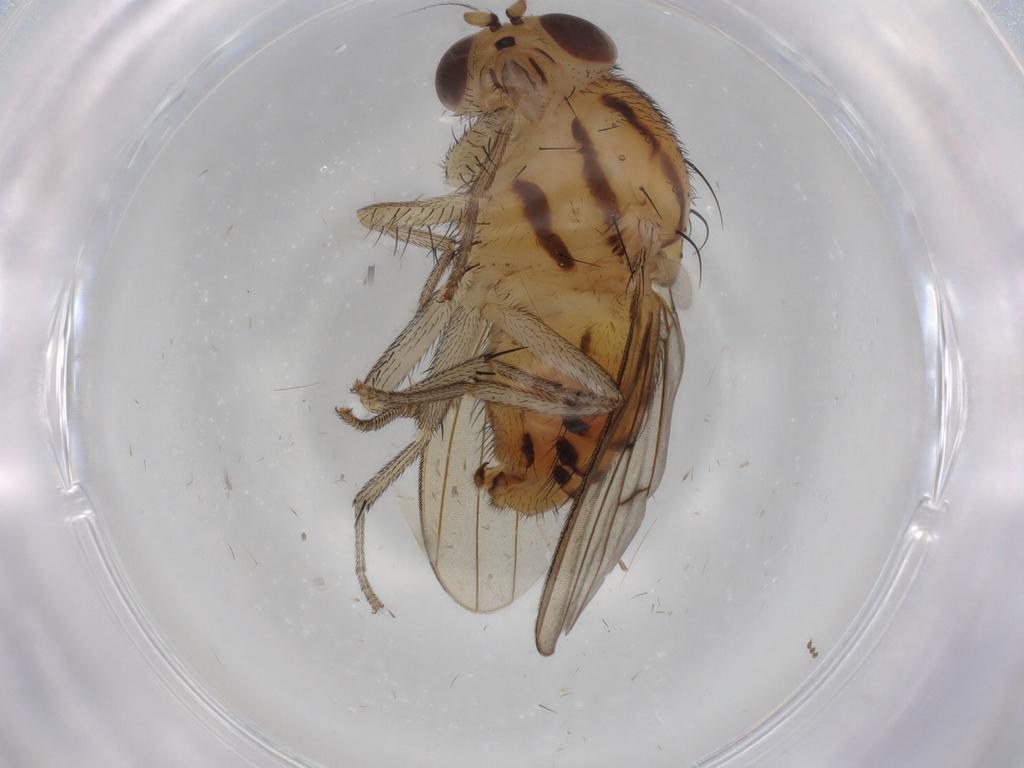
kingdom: Animalia
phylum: Arthropoda
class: Insecta
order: Diptera
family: Lauxaniidae
